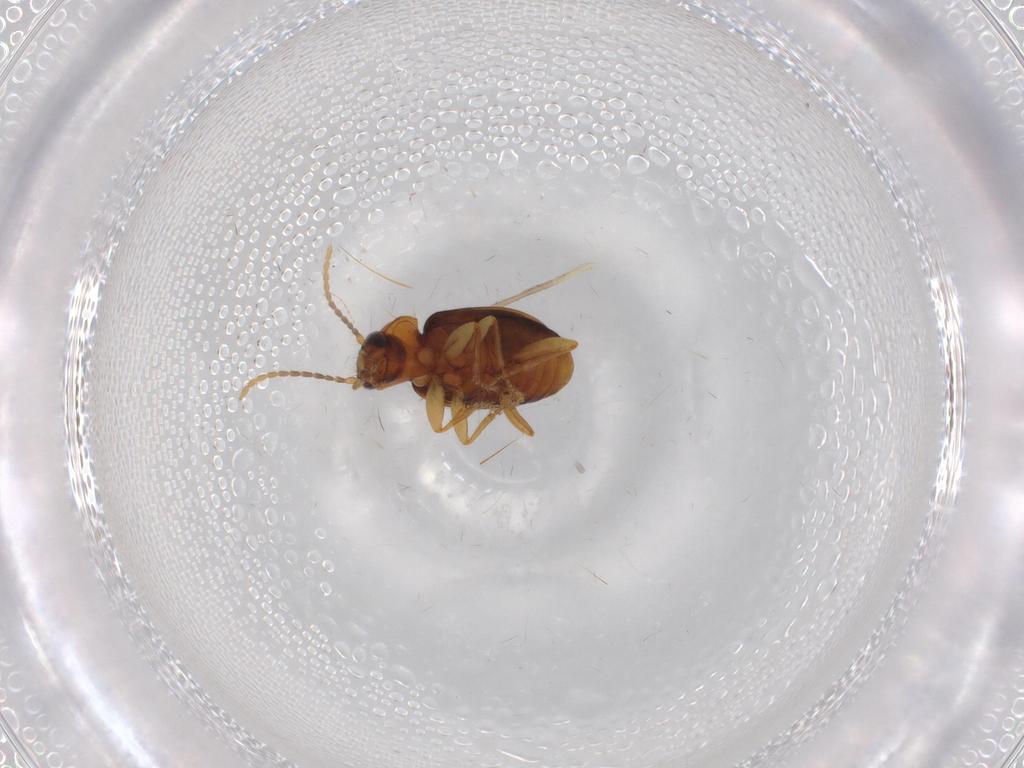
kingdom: Animalia
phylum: Arthropoda
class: Insecta
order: Coleoptera
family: Carabidae
